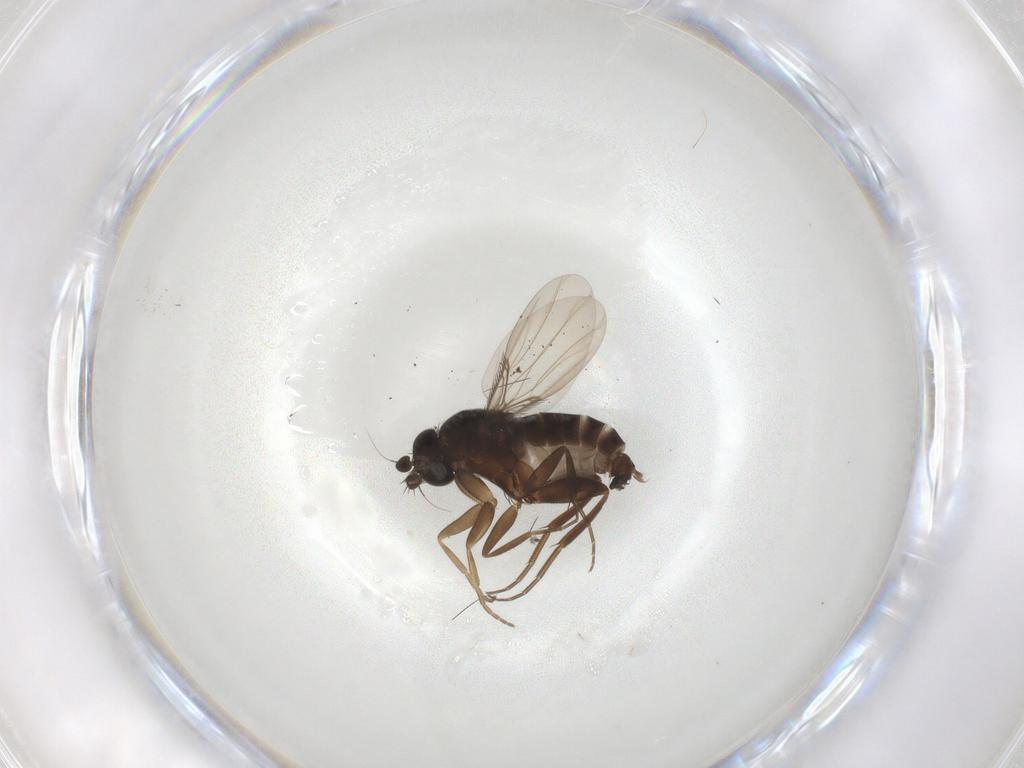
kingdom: Animalia
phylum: Arthropoda
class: Insecta
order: Diptera
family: Phoridae
